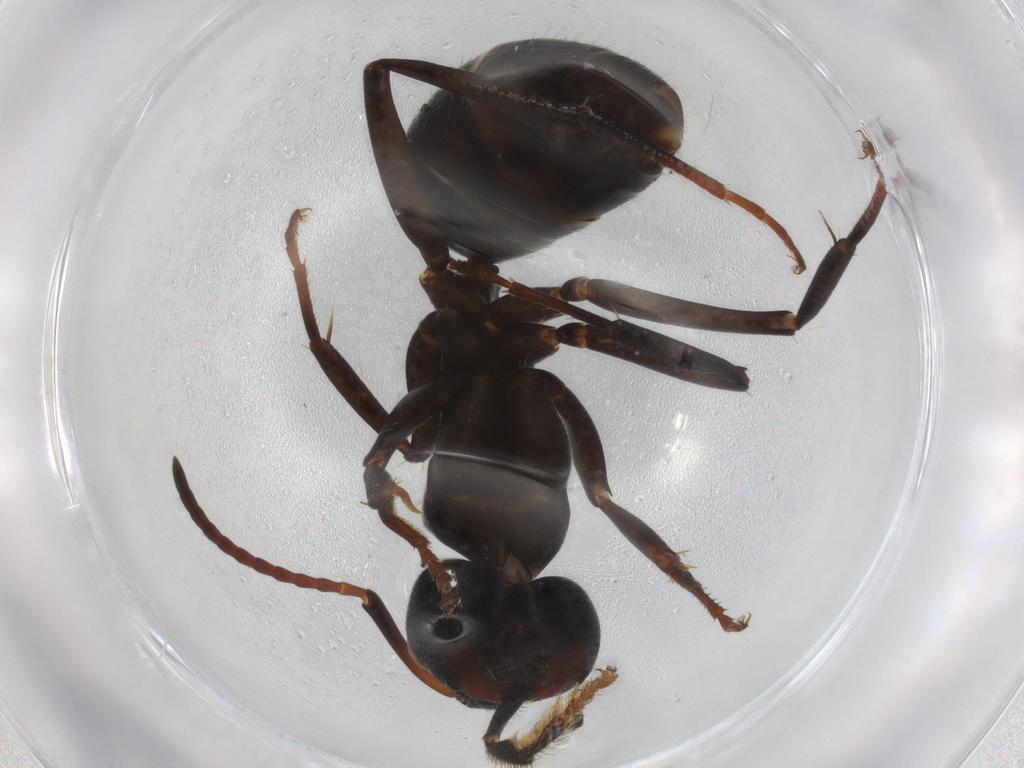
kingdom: Animalia
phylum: Arthropoda
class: Insecta
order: Hymenoptera
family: Formicidae
